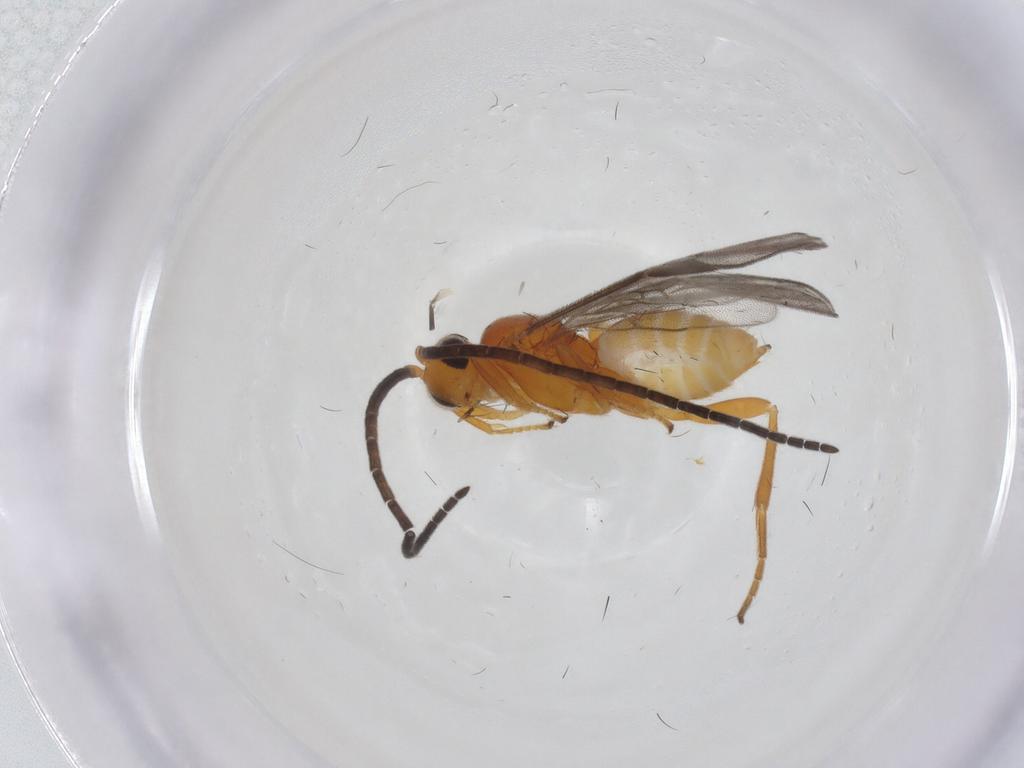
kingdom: Animalia
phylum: Arthropoda
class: Insecta
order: Hymenoptera
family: Braconidae
